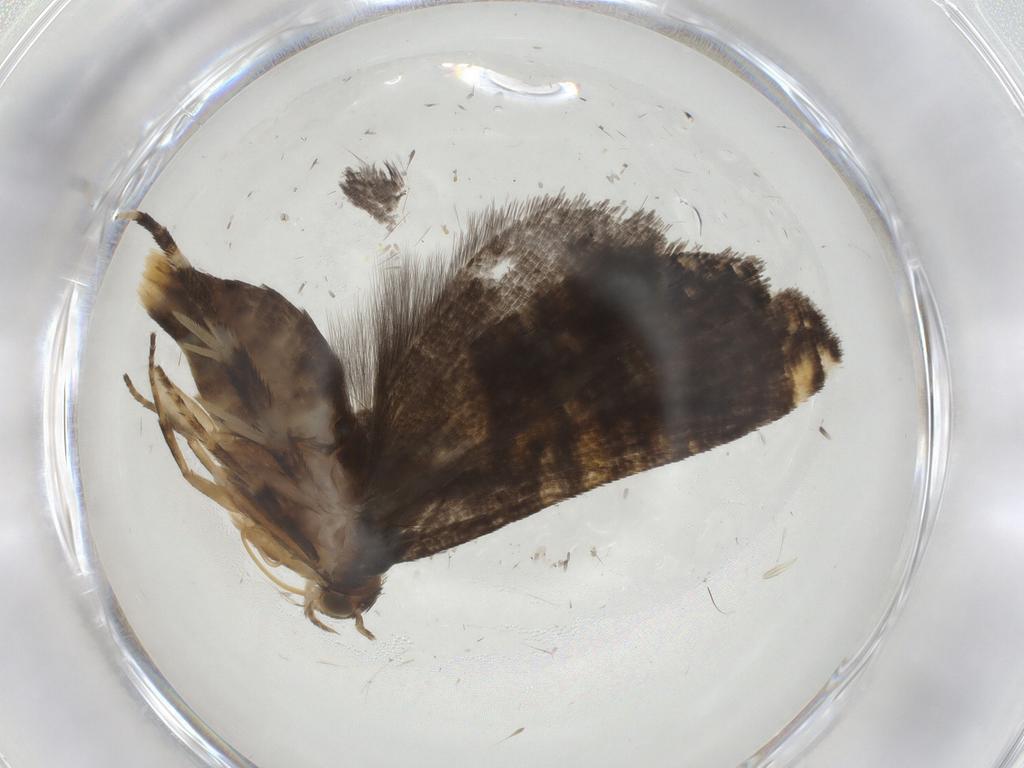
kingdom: Animalia
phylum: Arthropoda
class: Insecta
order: Lepidoptera
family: Glyphipterigidae
